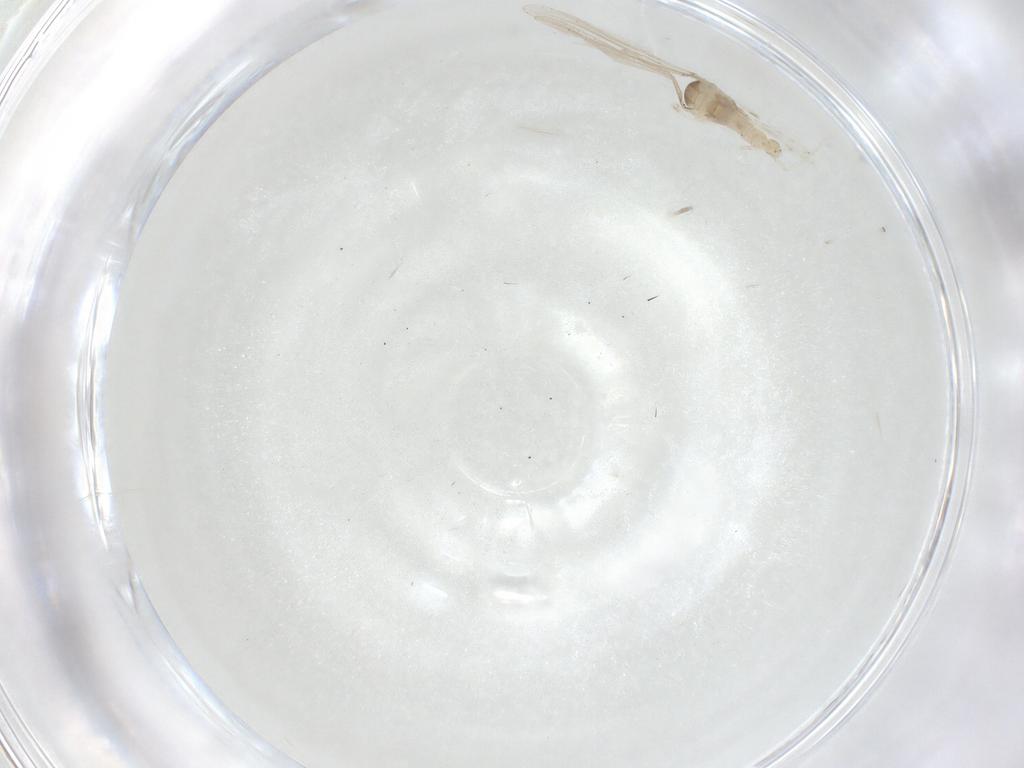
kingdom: Animalia
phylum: Arthropoda
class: Insecta
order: Diptera
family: Cecidomyiidae
